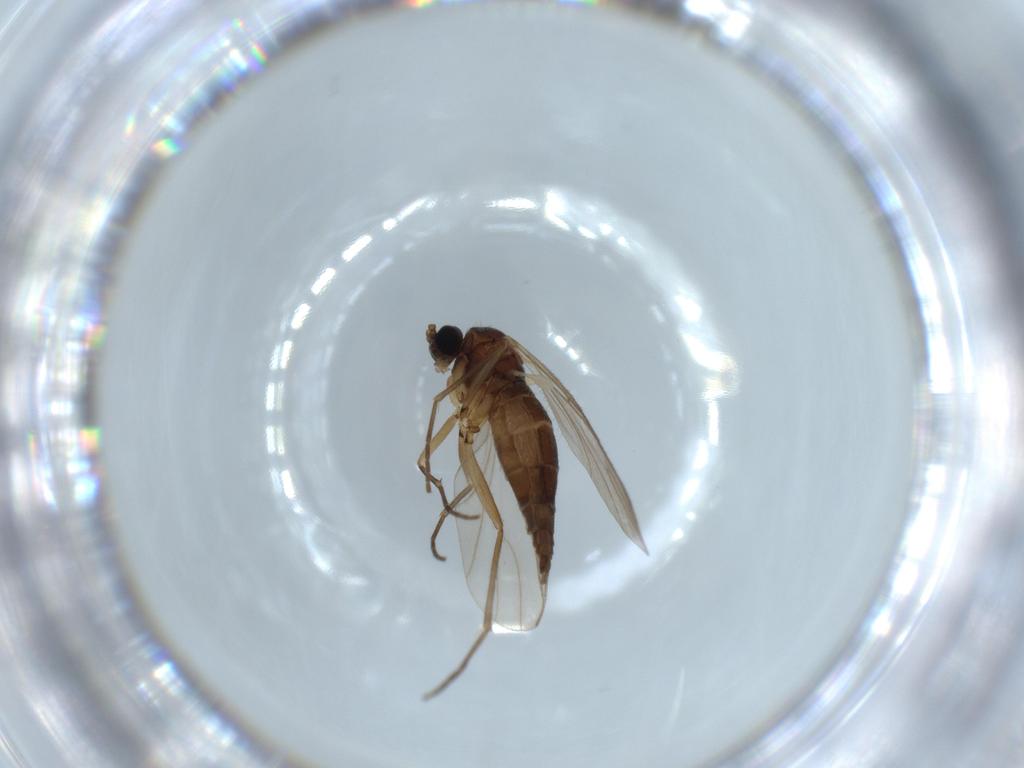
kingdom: Animalia
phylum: Arthropoda
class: Insecta
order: Diptera
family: Sciaridae
